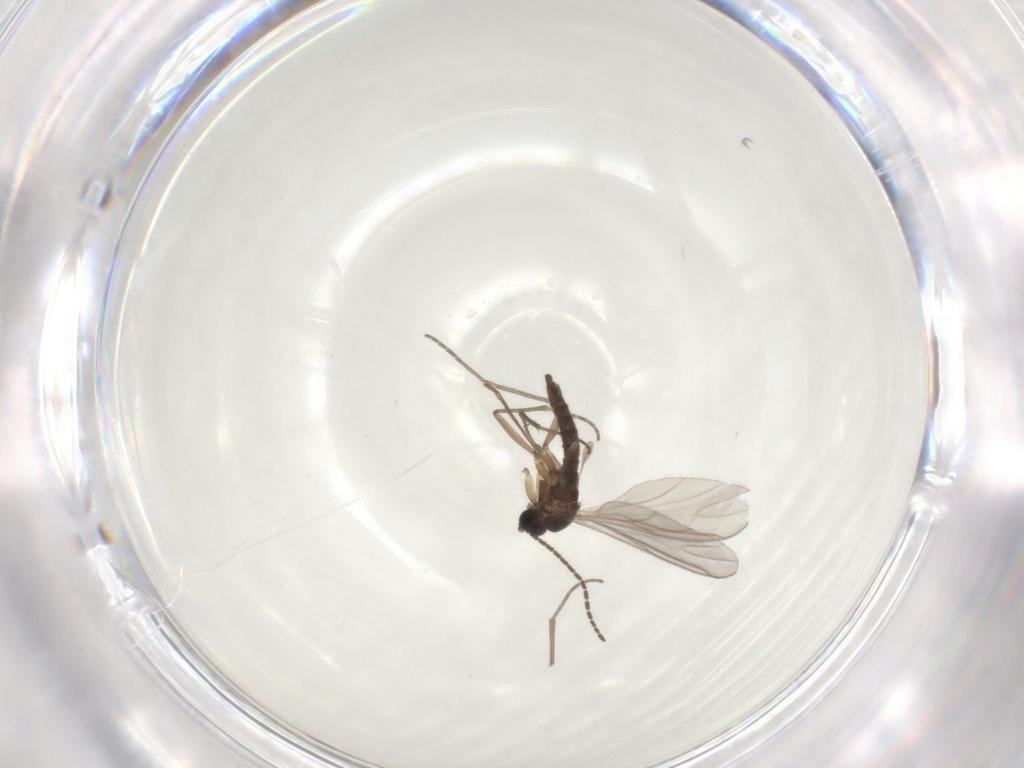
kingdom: Animalia
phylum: Arthropoda
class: Insecta
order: Diptera
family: Sciaridae
